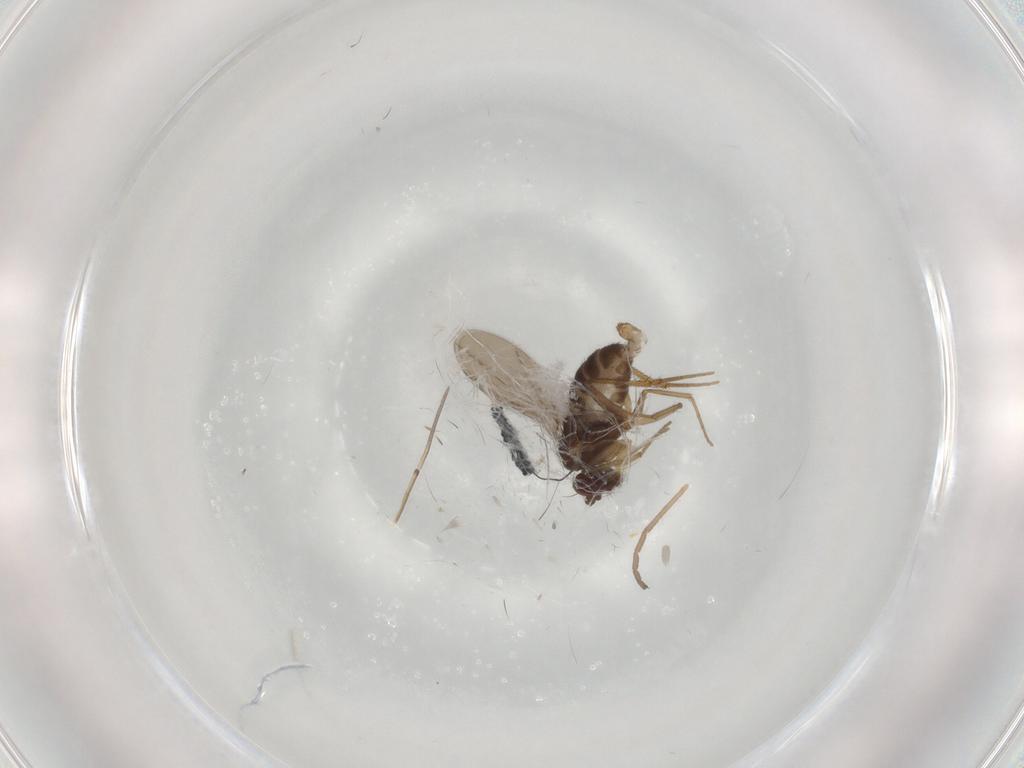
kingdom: Animalia
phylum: Arthropoda
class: Insecta
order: Diptera
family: Cecidomyiidae
